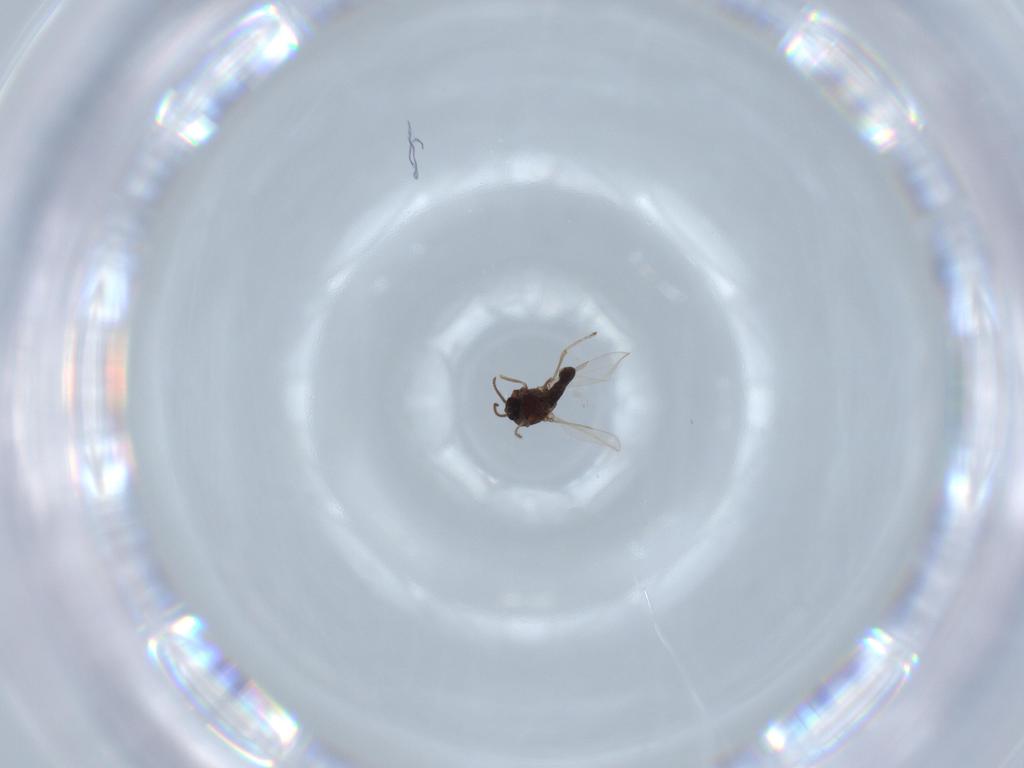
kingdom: Animalia
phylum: Arthropoda
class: Insecta
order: Diptera
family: Ceratopogonidae
